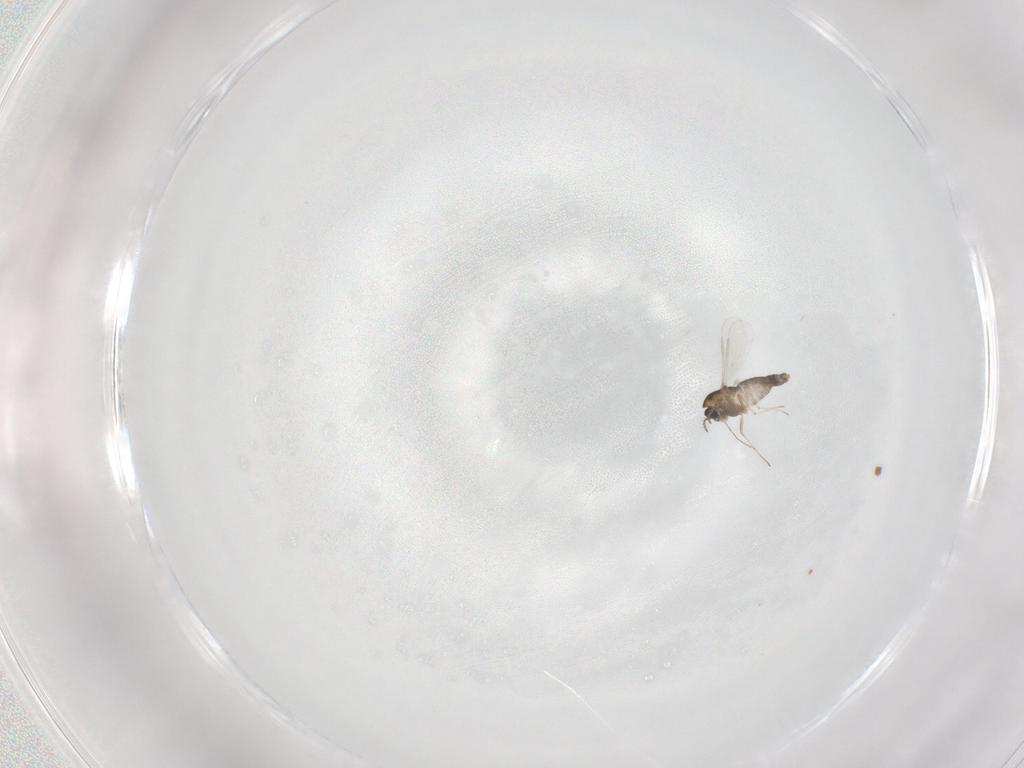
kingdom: Animalia
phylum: Arthropoda
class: Insecta
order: Diptera
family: Chironomidae
